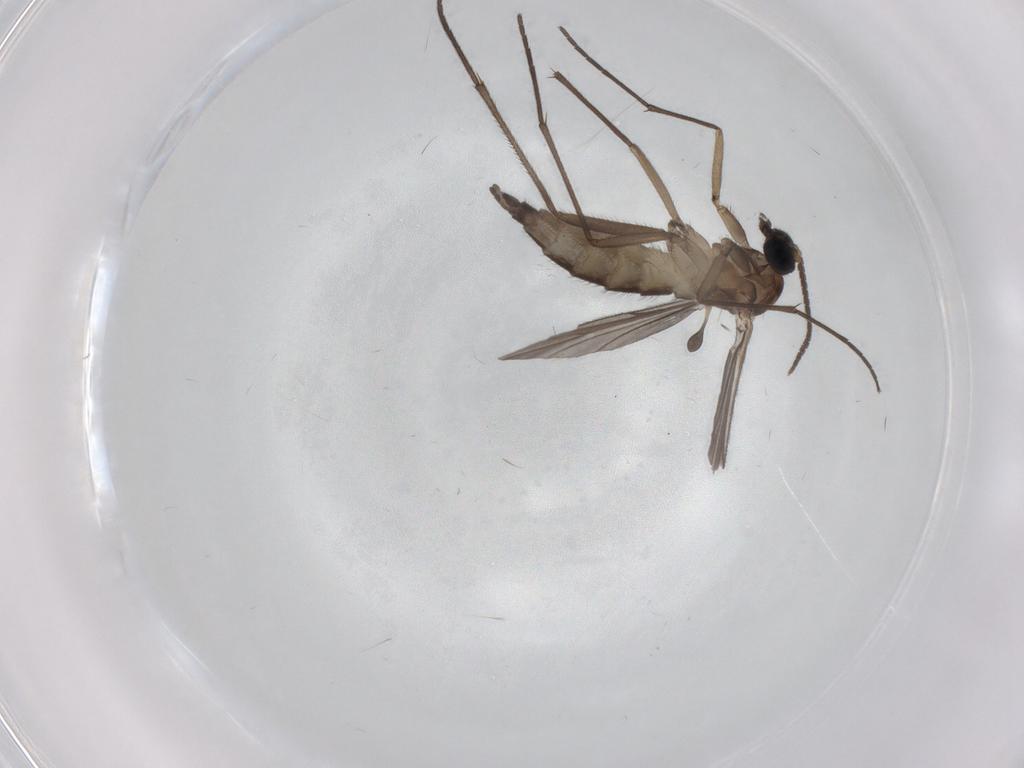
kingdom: Animalia
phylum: Arthropoda
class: Insecta
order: Diptera
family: Sciaridae
